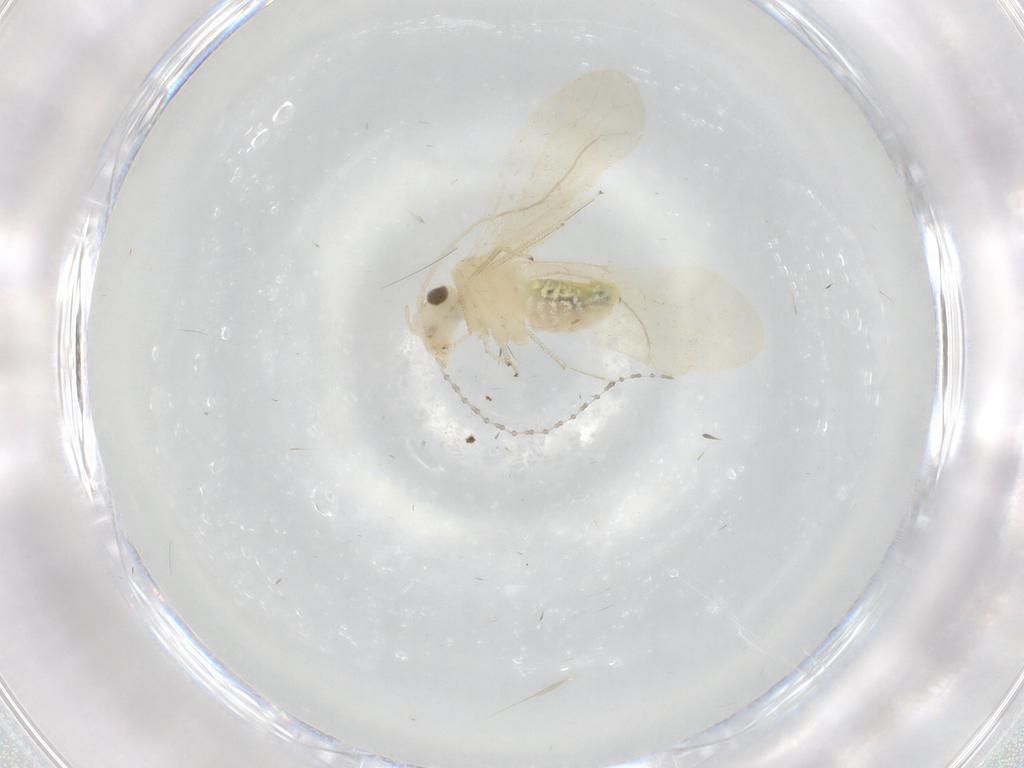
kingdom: Animalia
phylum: Arthropoda
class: Insecta
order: Psocodea
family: Caeciliusidae
